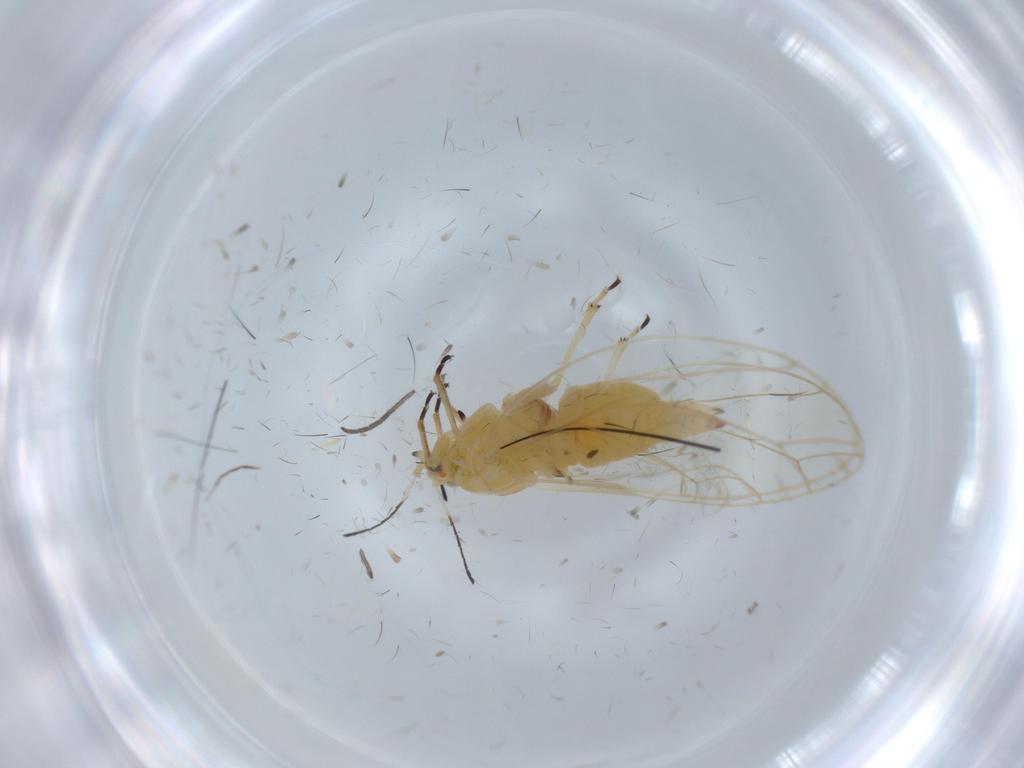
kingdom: Animalia
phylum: Arthropoda
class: Insecta
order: Hemiptera
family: Cercopidae
